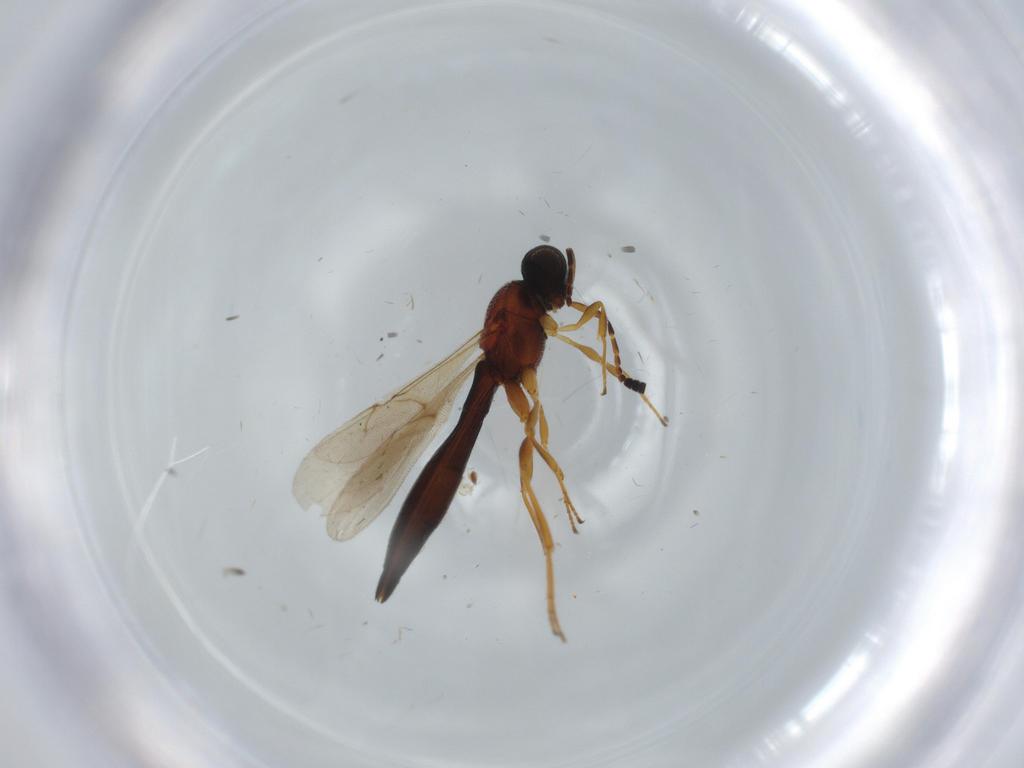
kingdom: Animalia
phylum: Arthropoda
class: Insecta
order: Hymenoptera
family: Scelionidae
